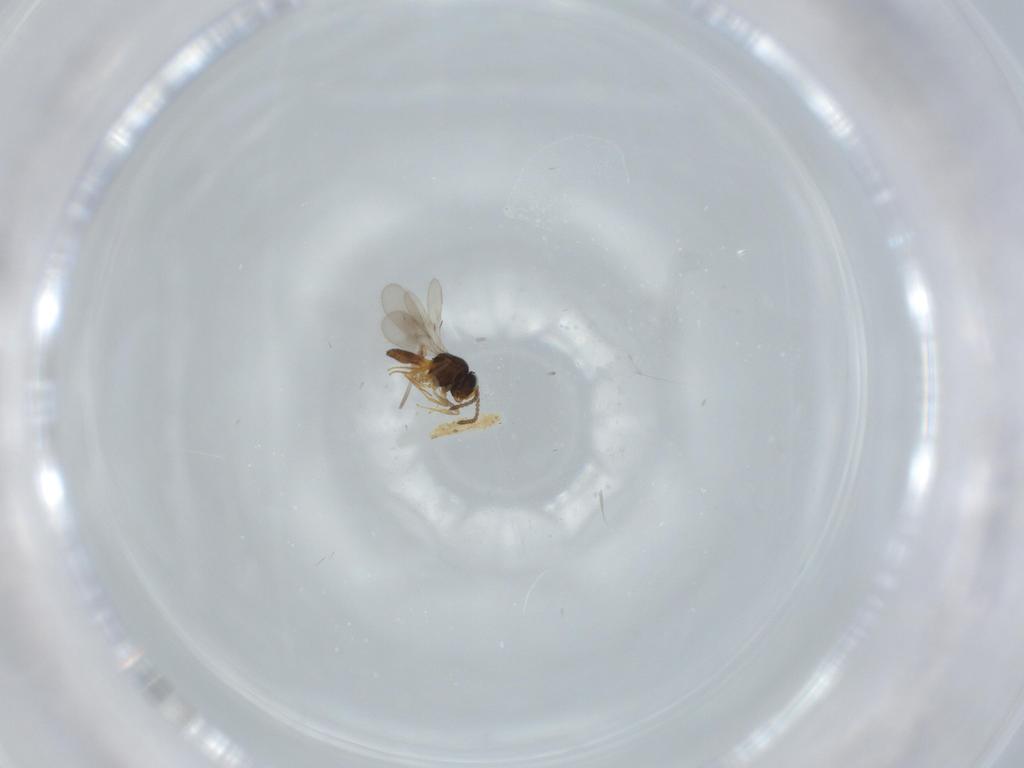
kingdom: Animalia
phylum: Arthropoda
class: Insecta
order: Hymenoptera
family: Scelionidae
